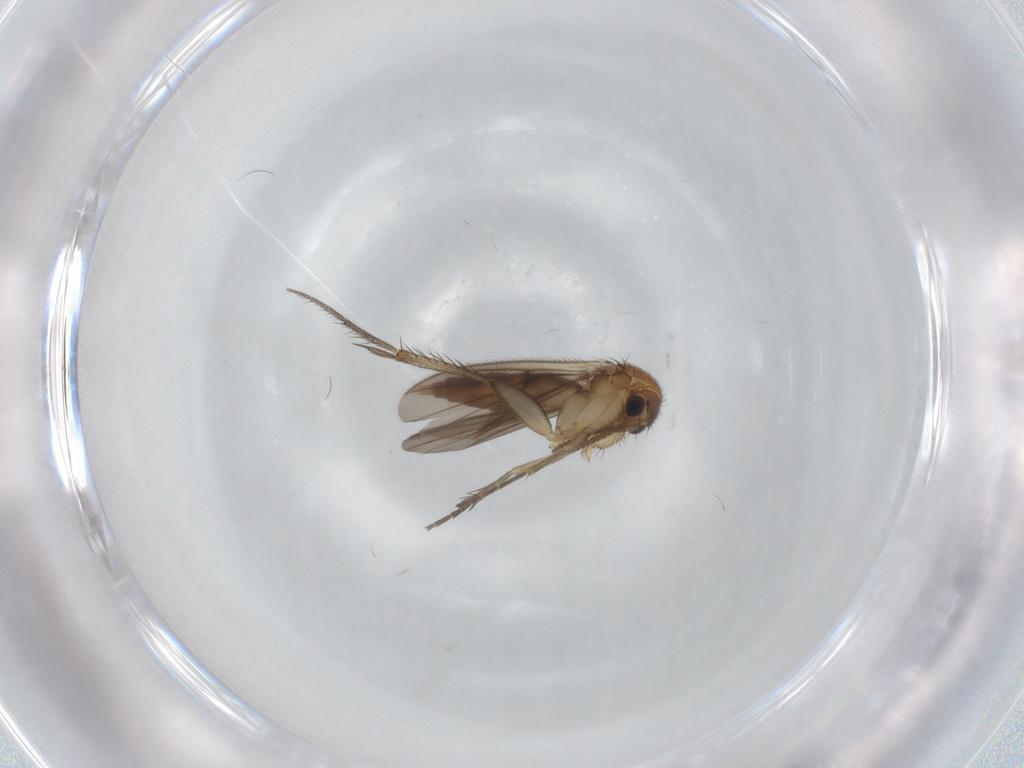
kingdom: Animalia
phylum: Arthropoda
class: Insecta
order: Diptera
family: Mycetophilidae
